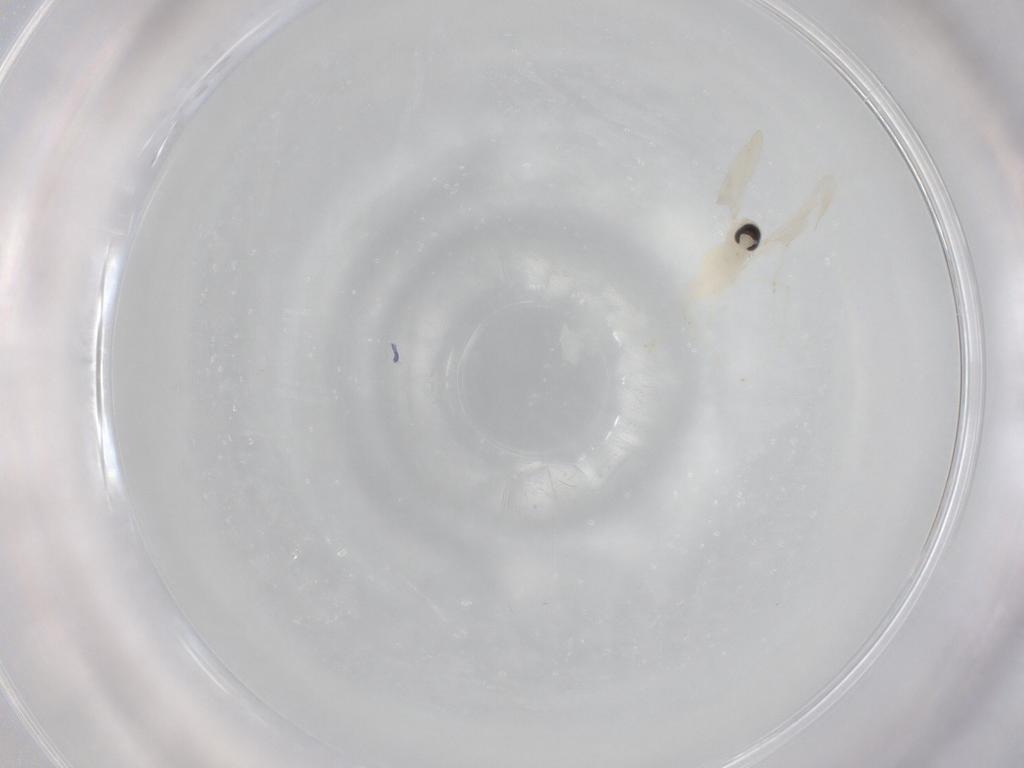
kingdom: Animalia
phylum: Arthropoda
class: Insecta
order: Diptera
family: Cecidomyiidae
